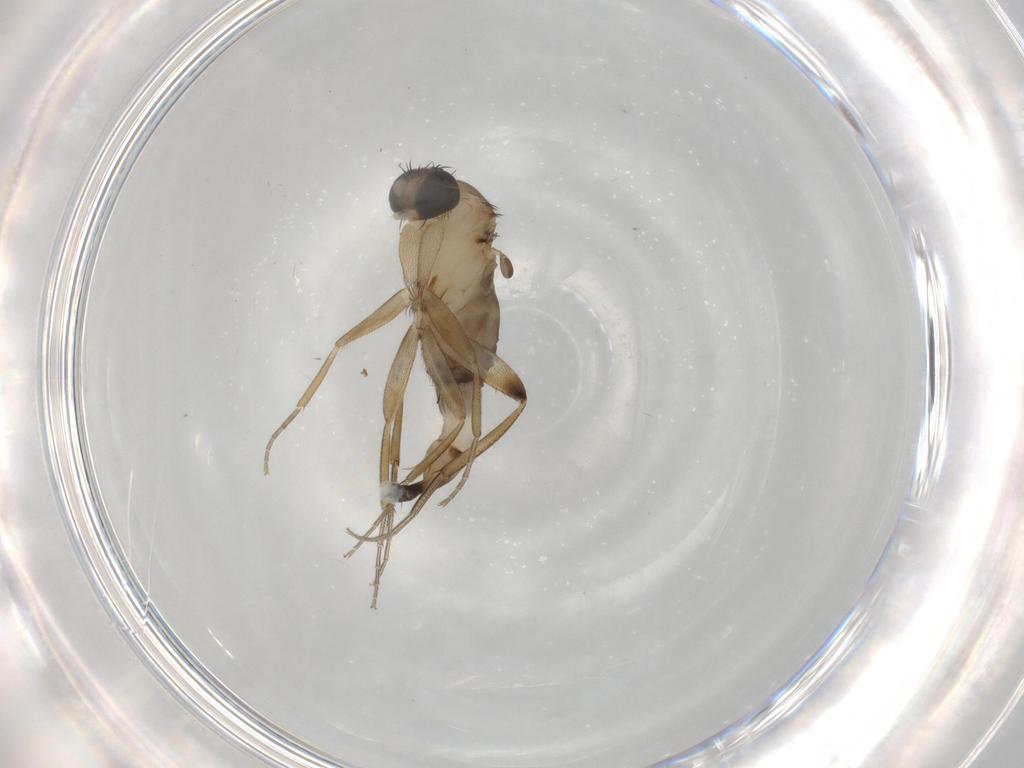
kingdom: Animalia
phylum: Arthropoda
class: Insecta
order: Diptera
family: Phoridae
